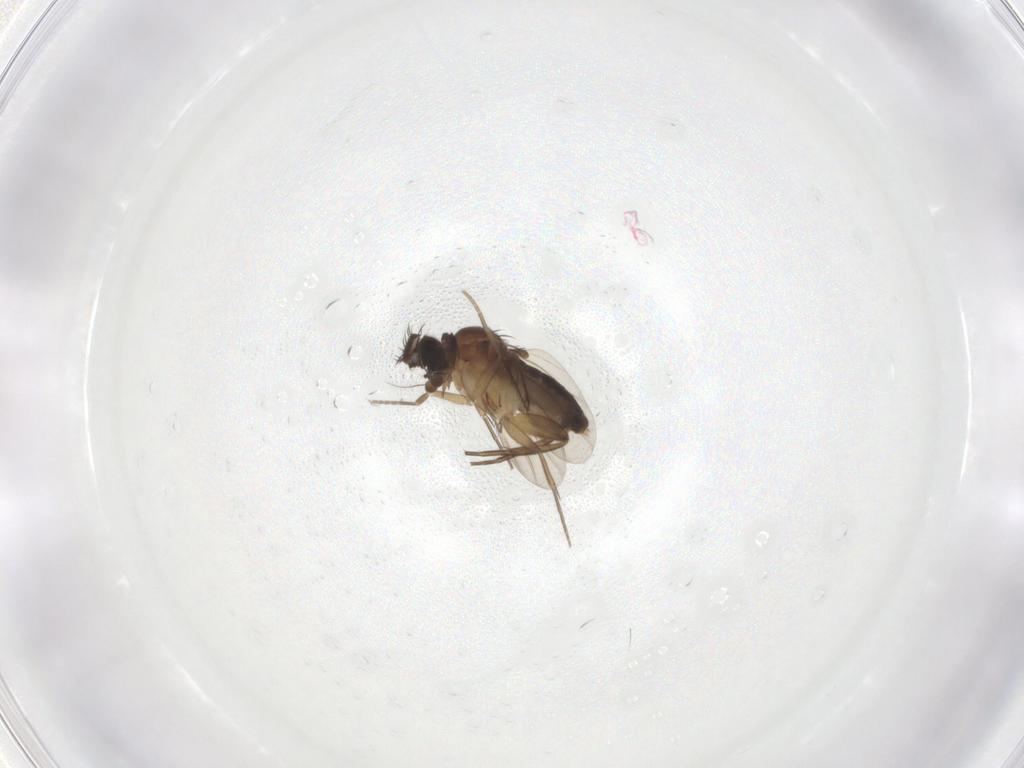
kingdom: Animalia
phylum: Arthropoda
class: Insecta
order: Diptera
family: Phoridae
